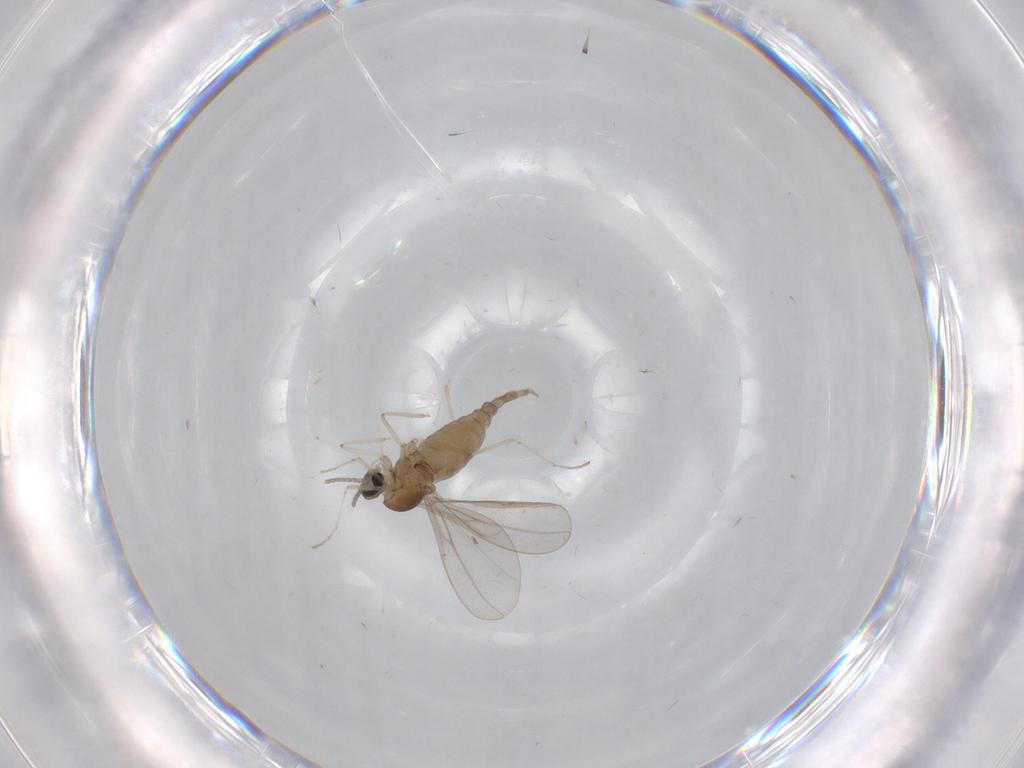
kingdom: Animalia
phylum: Arthropoda
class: Insecta
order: Diptera
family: Cecidomyiidae
